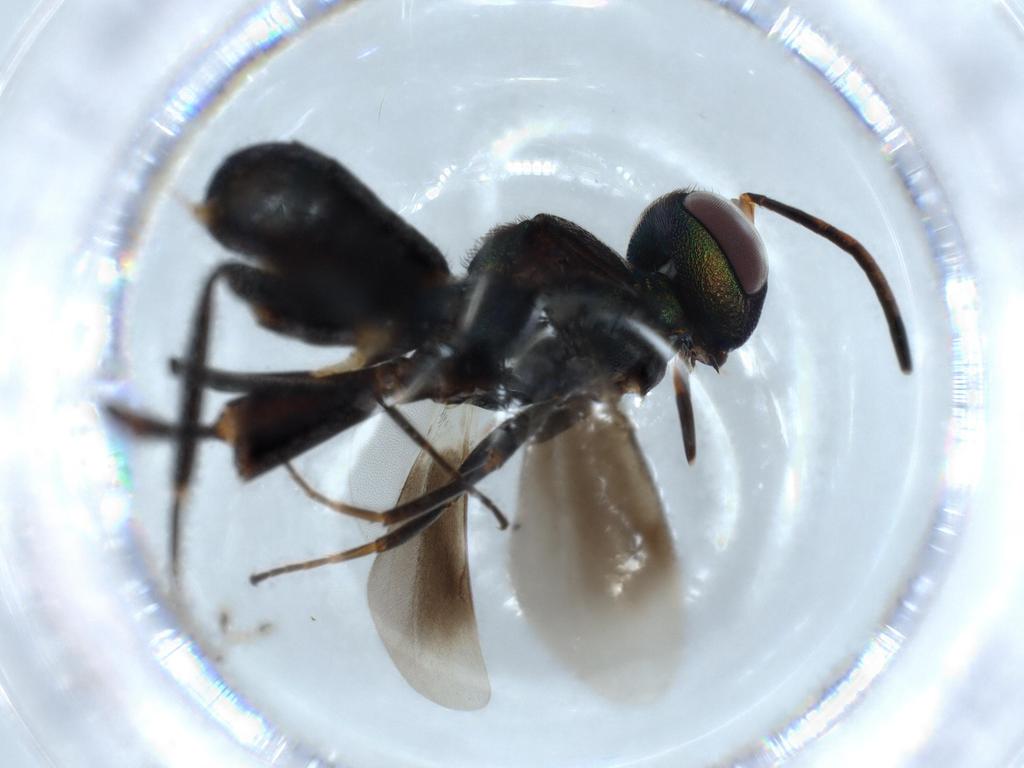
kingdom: Animalia
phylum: Arthropoda
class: Insecta
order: Hymenoptera
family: Eupelmidae
